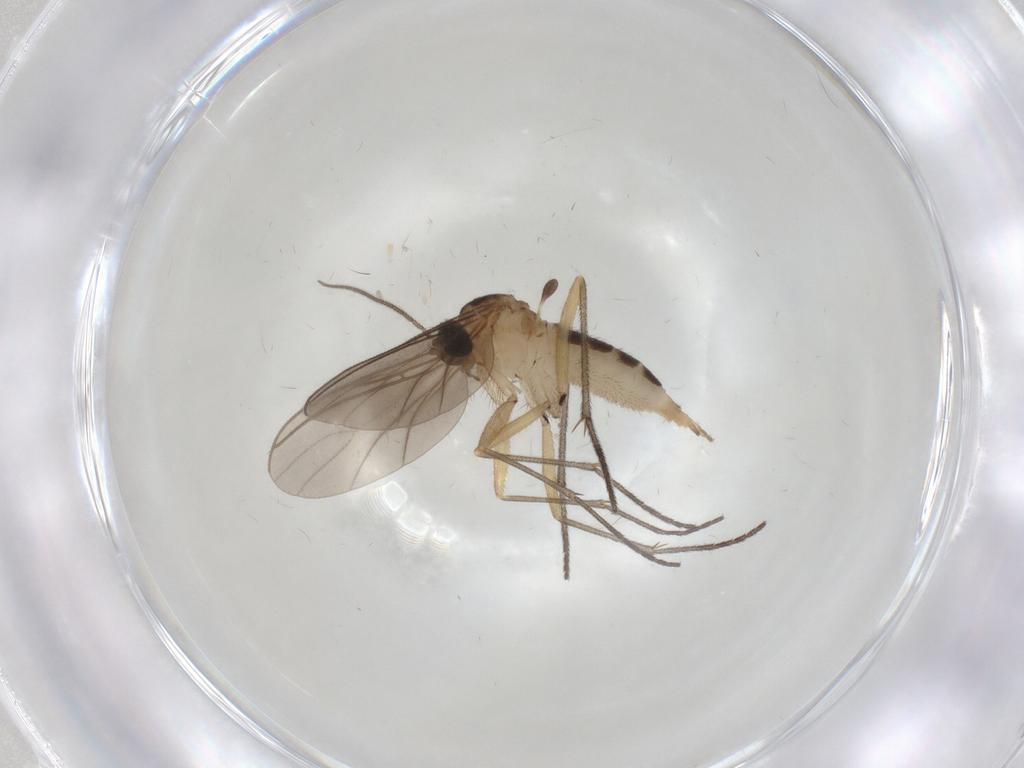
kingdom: Animalia
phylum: Arthropoda
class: Insecta
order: Diptera
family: Sciaridae
